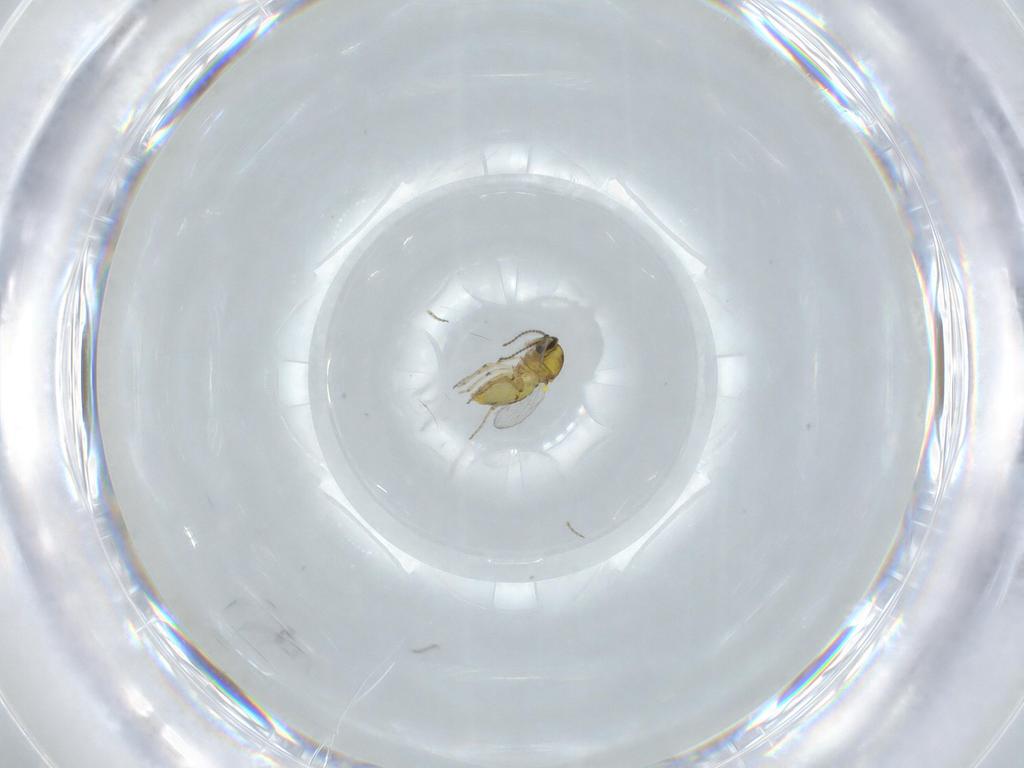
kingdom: Animalia
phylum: Arthropoda
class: Insecta
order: Diptera
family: Ceratopogonidae
